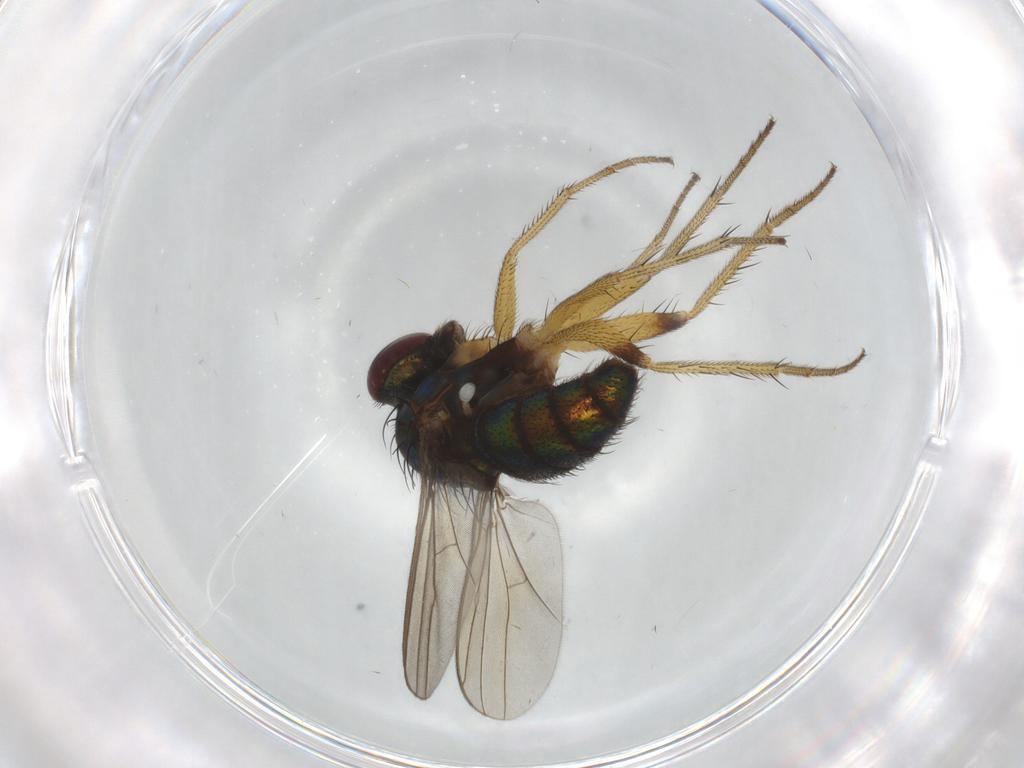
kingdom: Animalia
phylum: Arthropoda
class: Insecta
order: Diptera
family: Dolichopodidae
